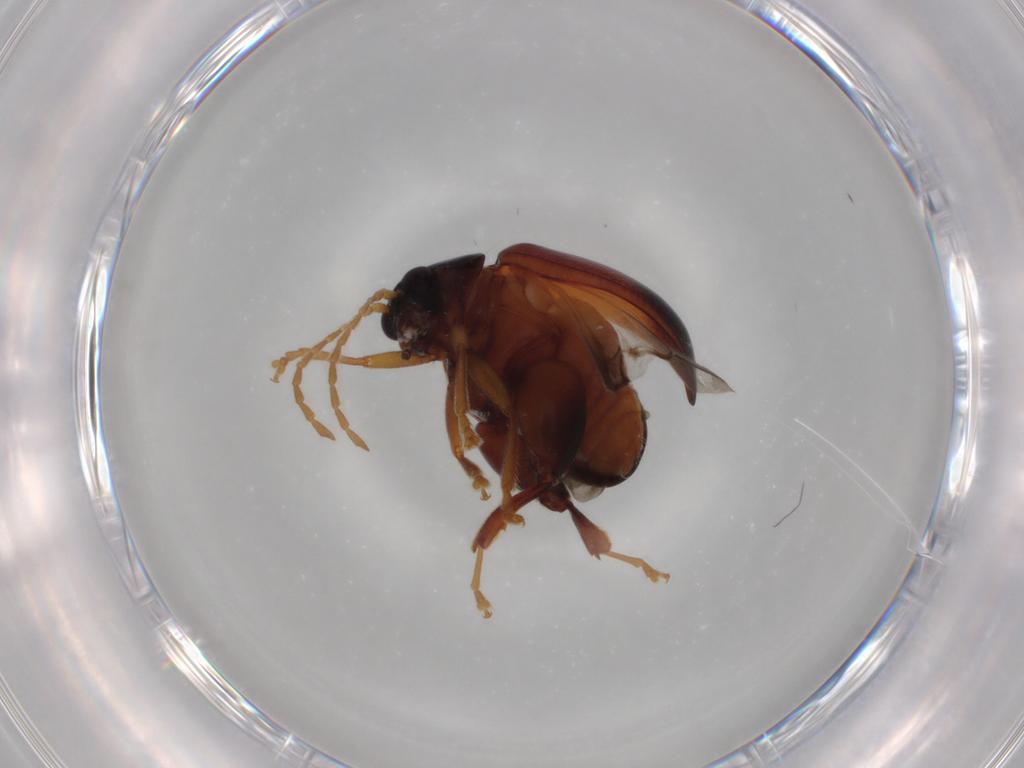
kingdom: Animalia
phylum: Arthropoda
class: Insecta
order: Coleoptera
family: Chrysomelidae
